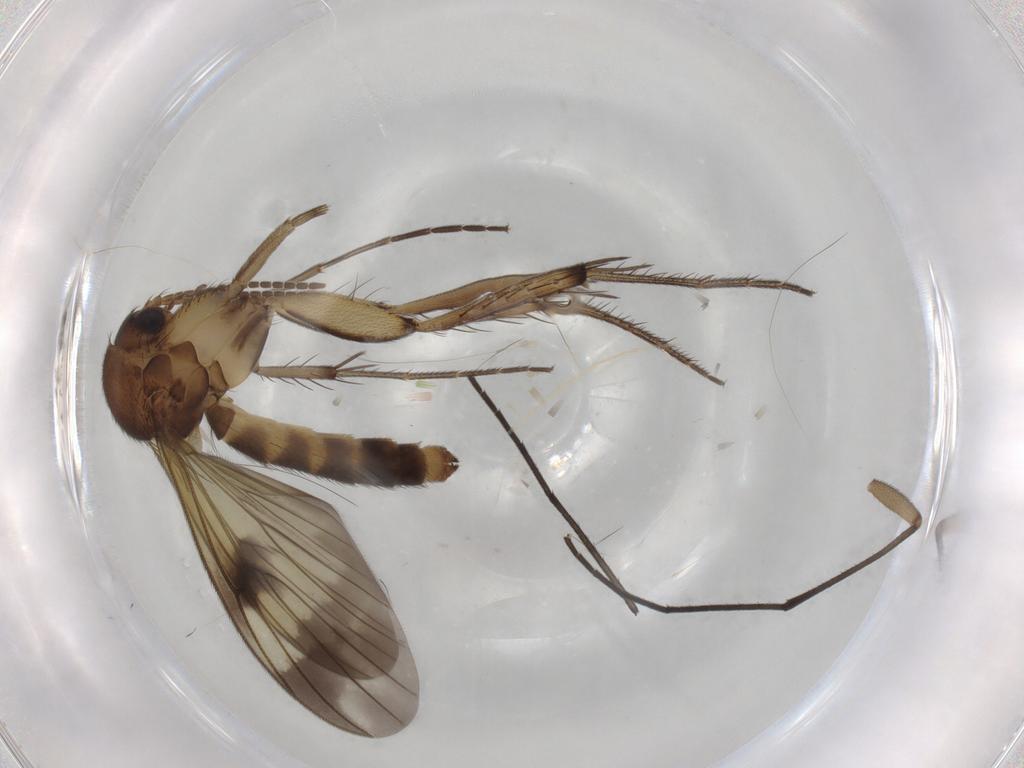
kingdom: Animalia
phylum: Arthropoda
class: Insecta
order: Diptera
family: Mycetophilidae
